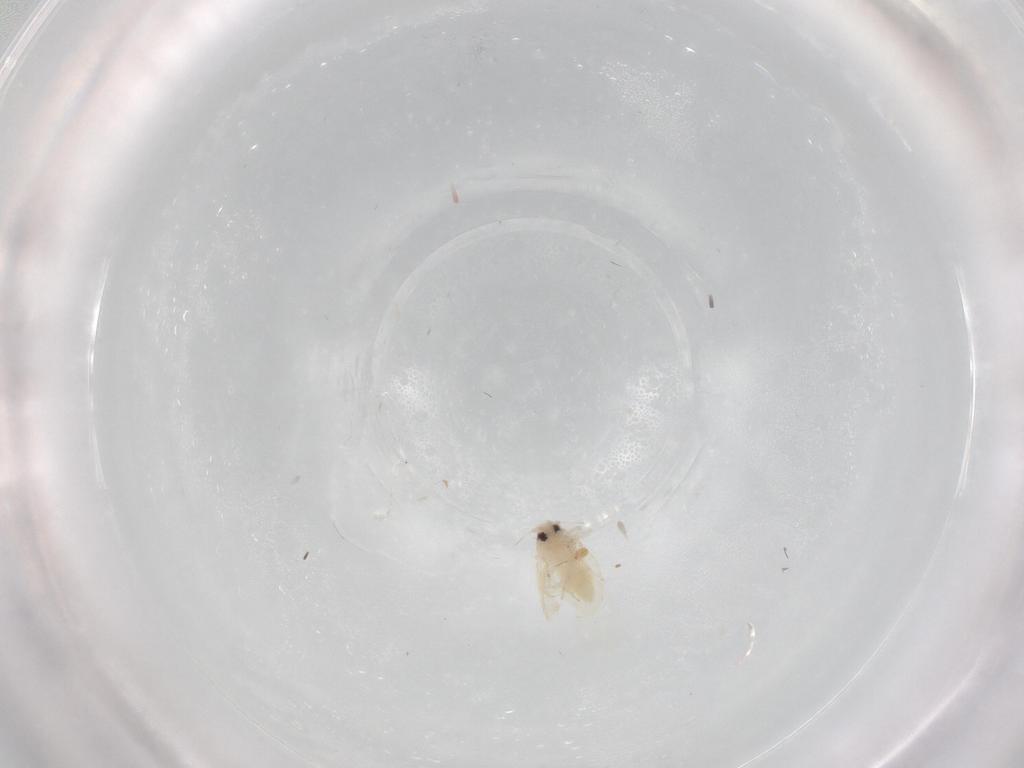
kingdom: Animalia
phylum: Arthropoda
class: Insecta
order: Hemiptera
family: Aleyrodidae
